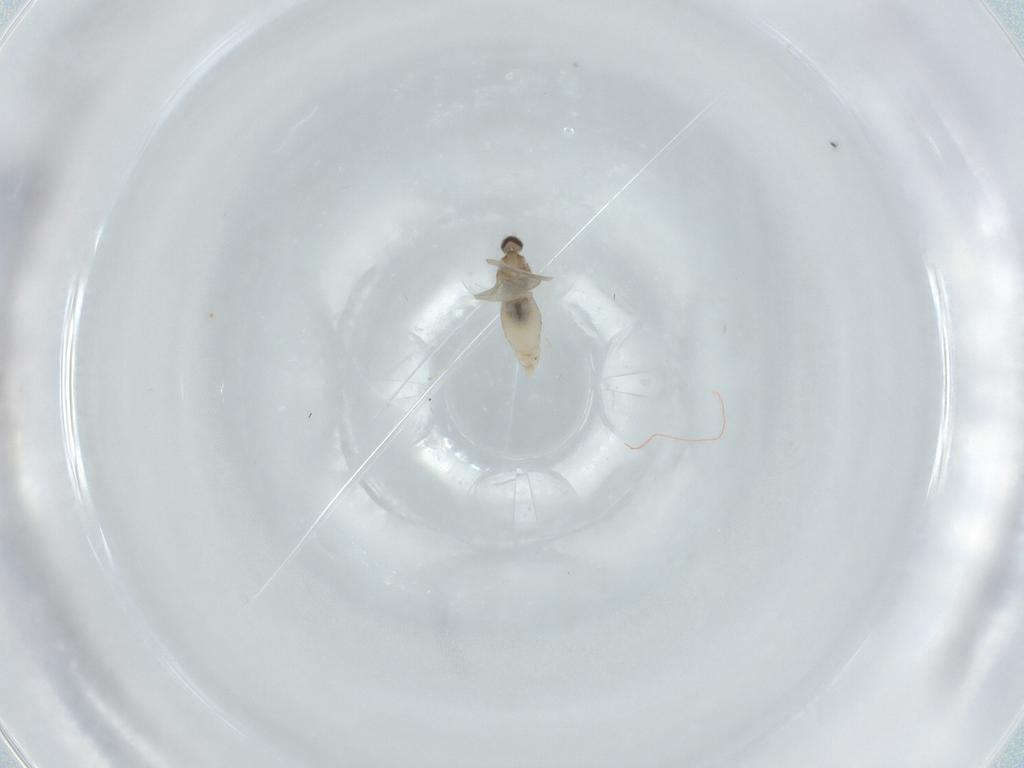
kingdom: Animalia
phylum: Arthropoda
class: Insecta
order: Diptera
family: Cecidomyiidae
